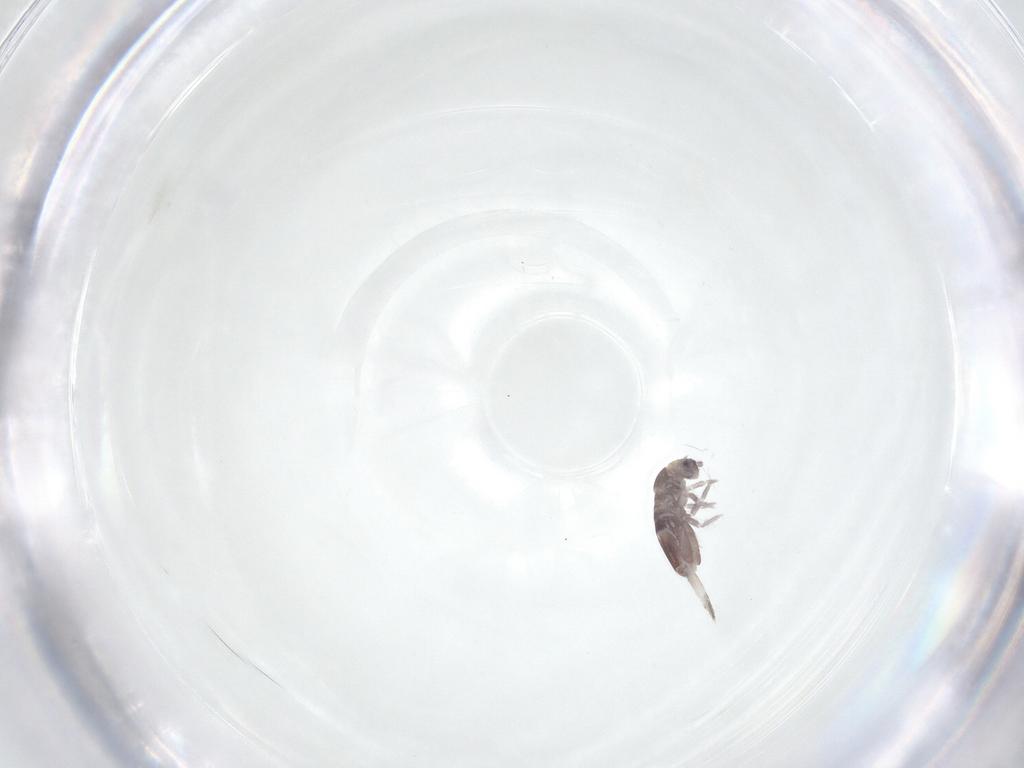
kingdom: Animalia
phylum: Arthropoda
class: Collembola
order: Entomobryomorpha
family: Entomobryidae
